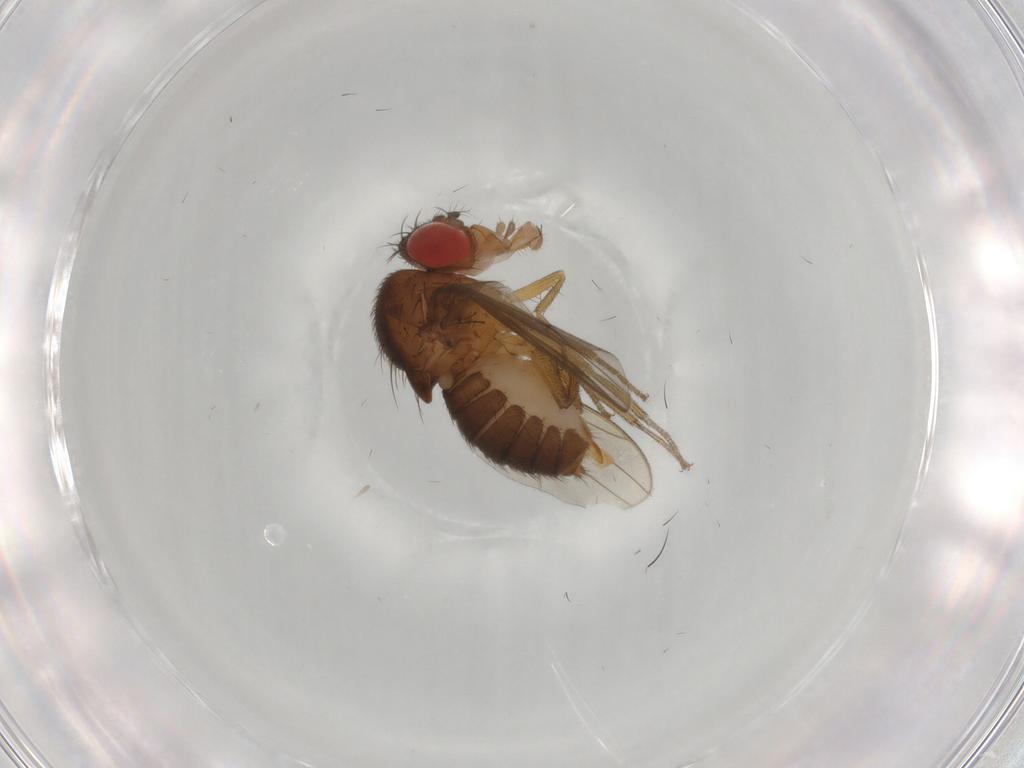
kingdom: Animalia
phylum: Arthropoda
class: Insecta
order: Diptera
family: Drosophilidae
